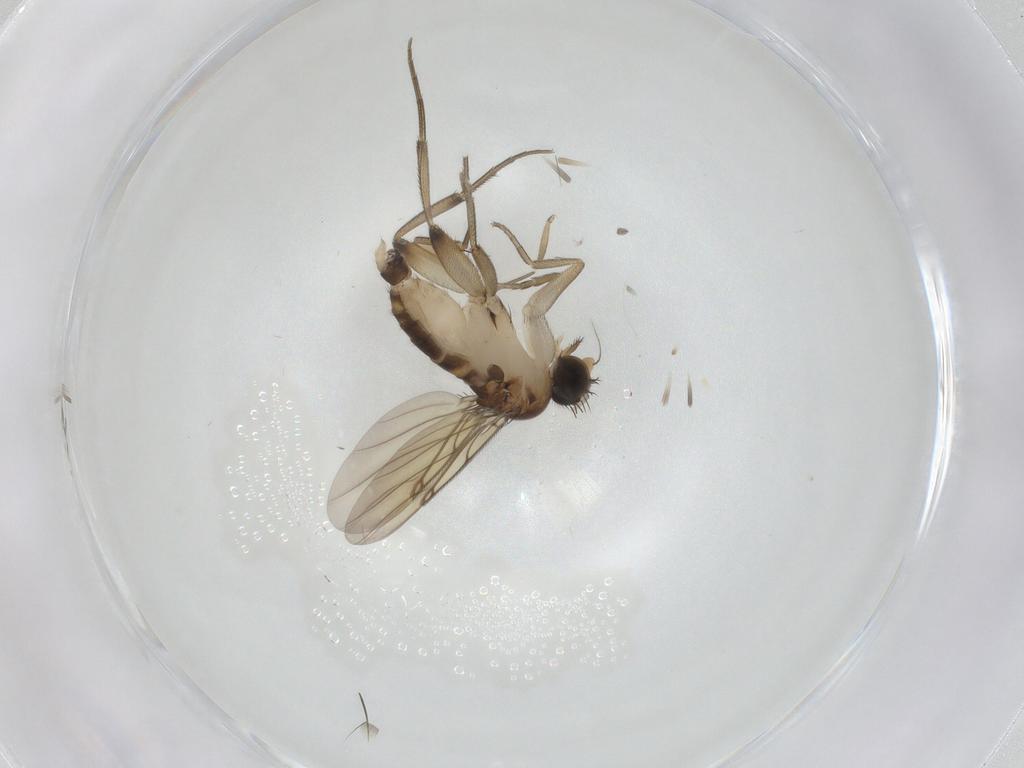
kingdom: Animalia
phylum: Arthropoda
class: Insecta
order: Diptera
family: Phoridae
